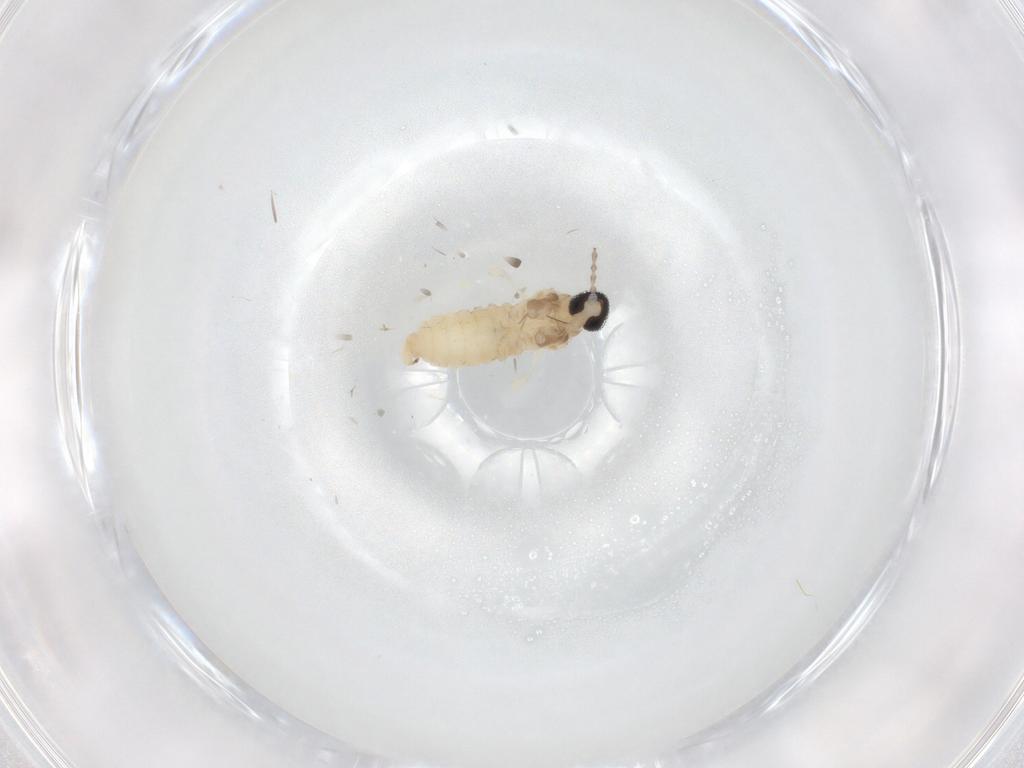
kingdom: Animalia
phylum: Arthropoda
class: Insecta
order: Diptera
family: Cecidomyiidae
